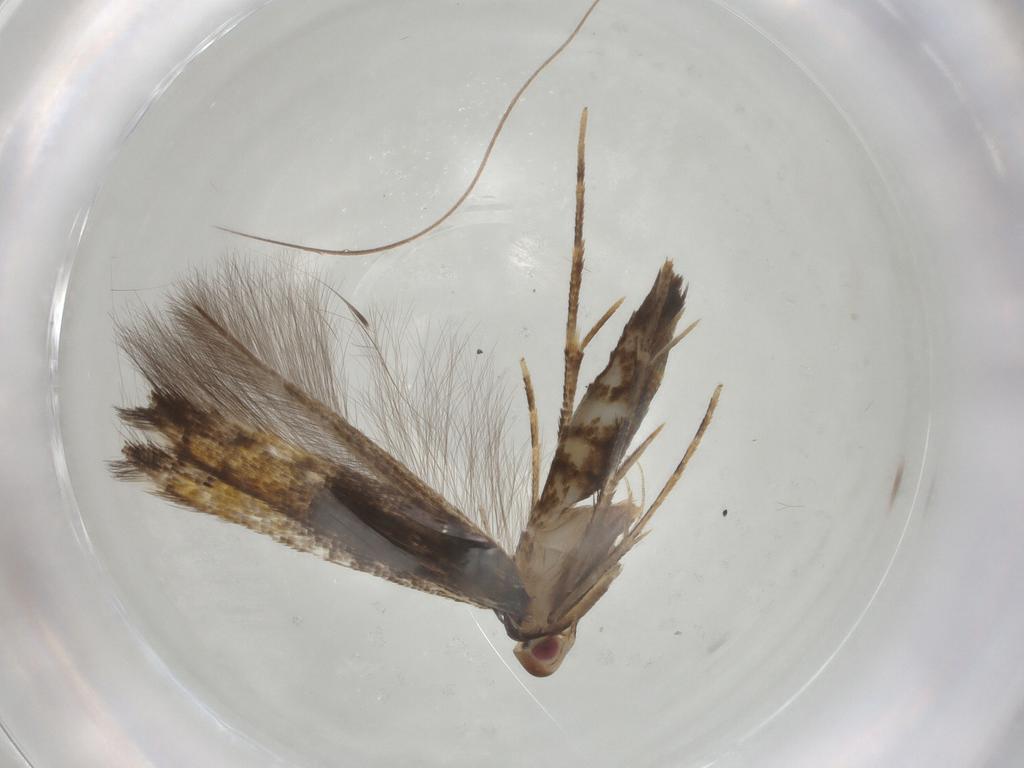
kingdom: Animalia
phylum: Arthropoda
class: Insecta
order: Lepidoptera
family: Cosmopterigidae
